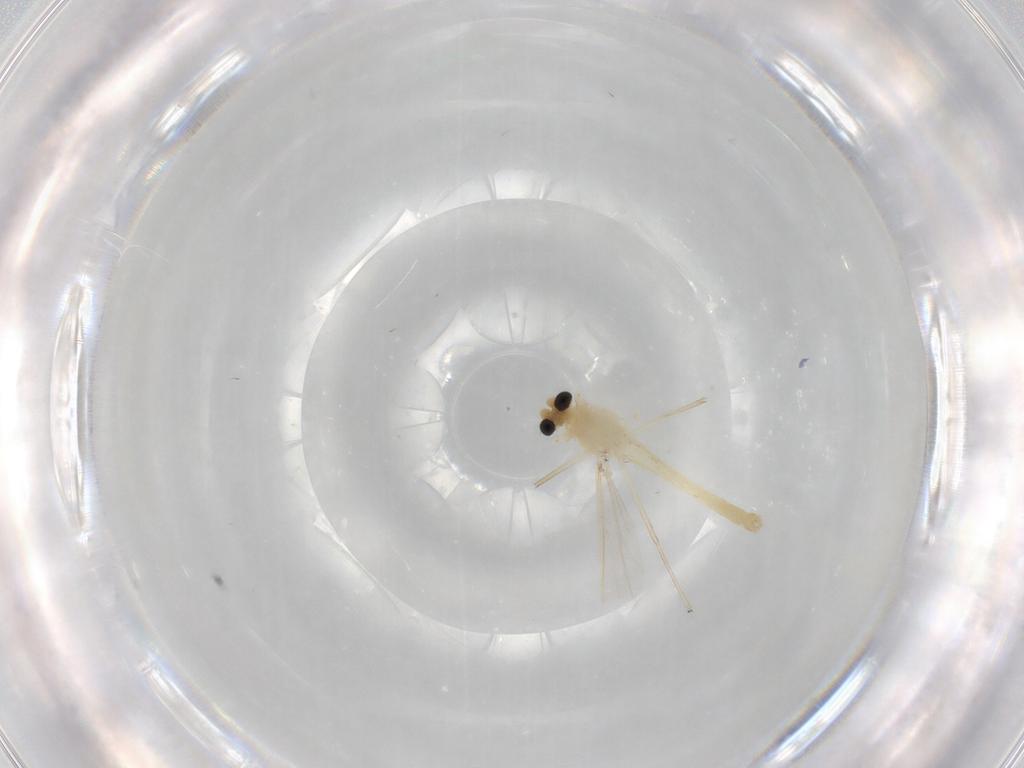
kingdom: Animalia
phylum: Arthropoda
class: Insecta
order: Diptera
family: Chironomidae
